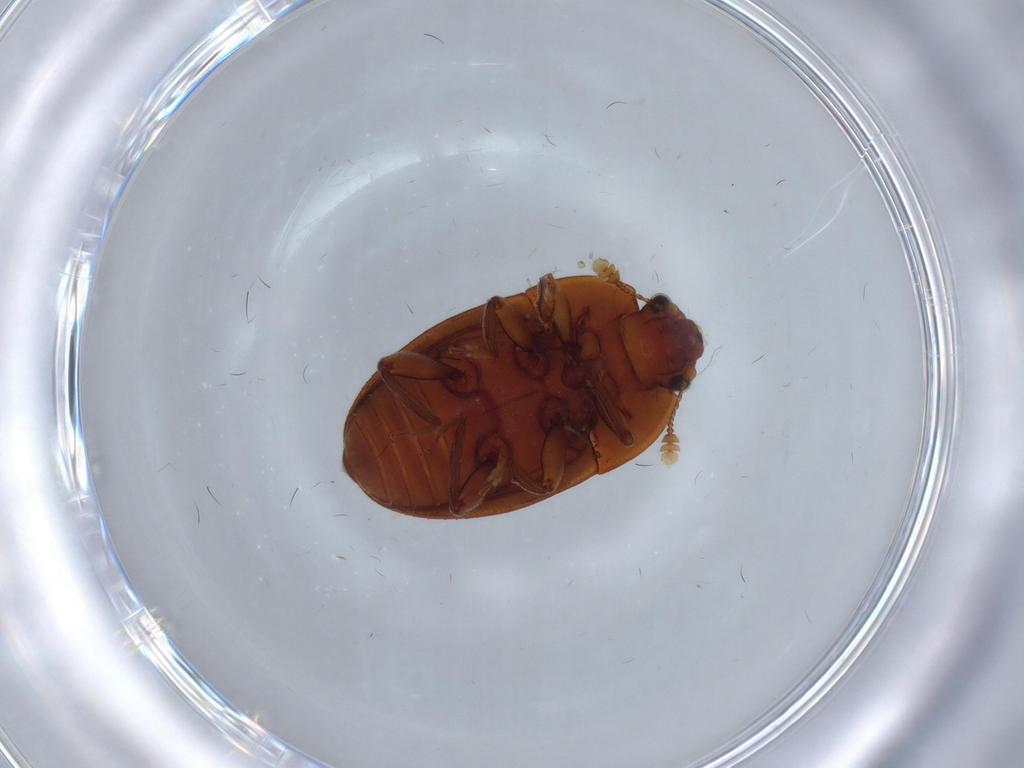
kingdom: Animalia
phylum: Arthropoda
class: Insecta
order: Coleoptera
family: Nitidulidae
